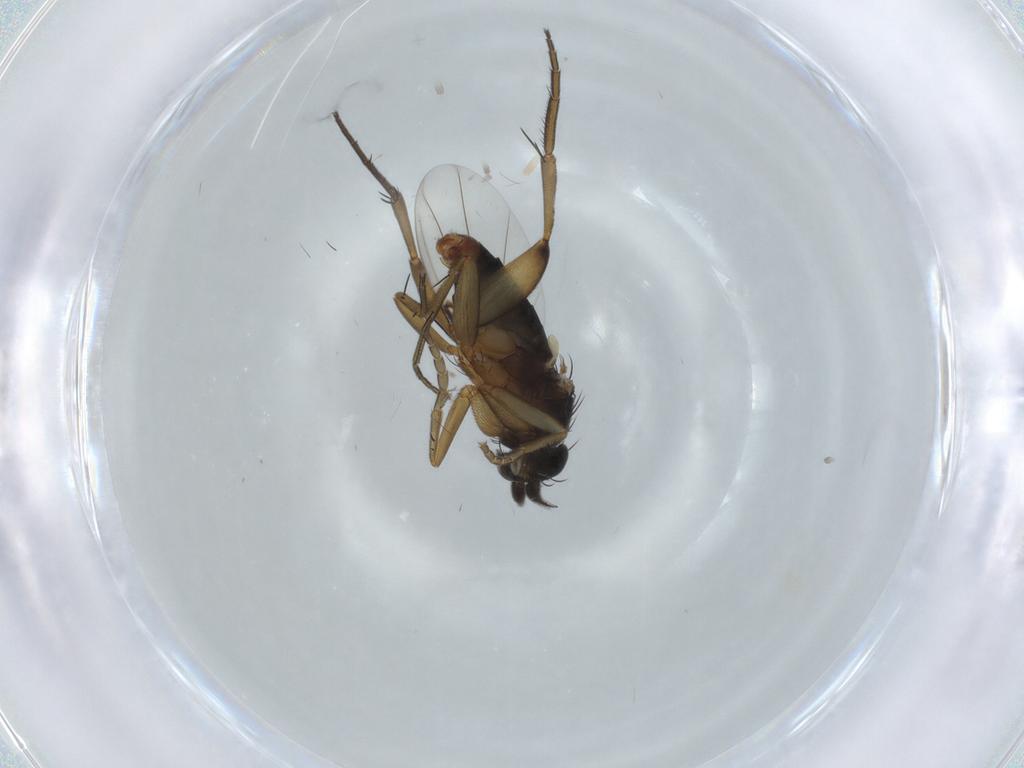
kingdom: Animalia
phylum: Arthropoda
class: Insecta
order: Diptera
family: Phoridae
